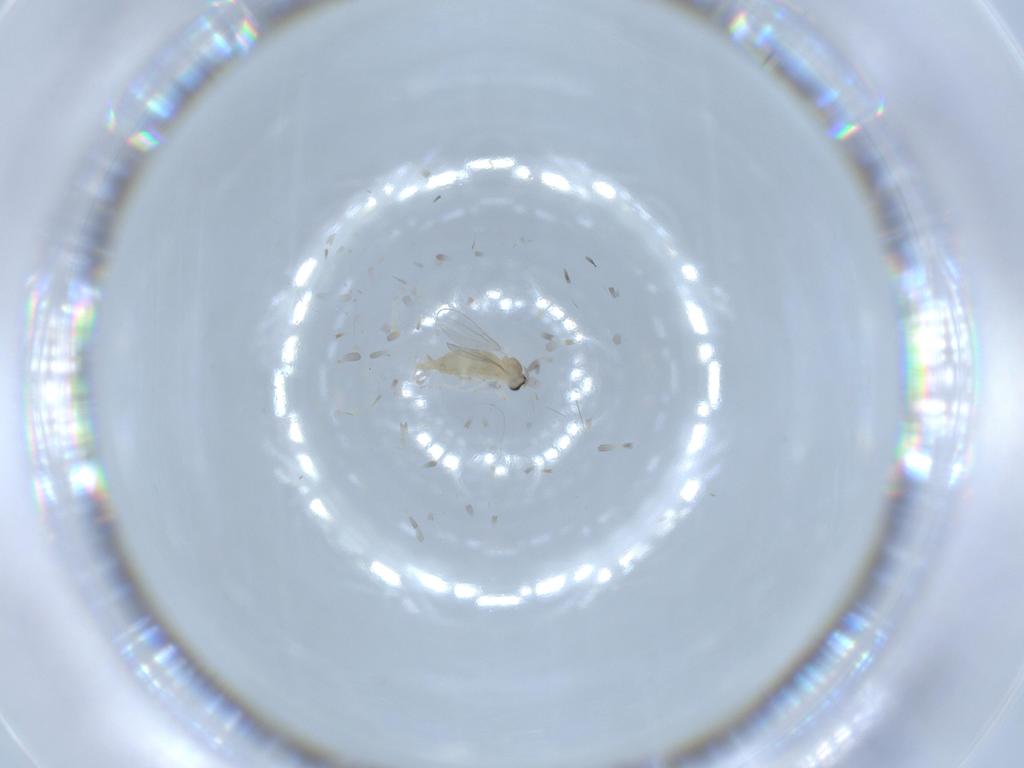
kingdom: Animalia
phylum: Arthropoda
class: Insecta
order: Diptera
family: Cecidomyiidae
